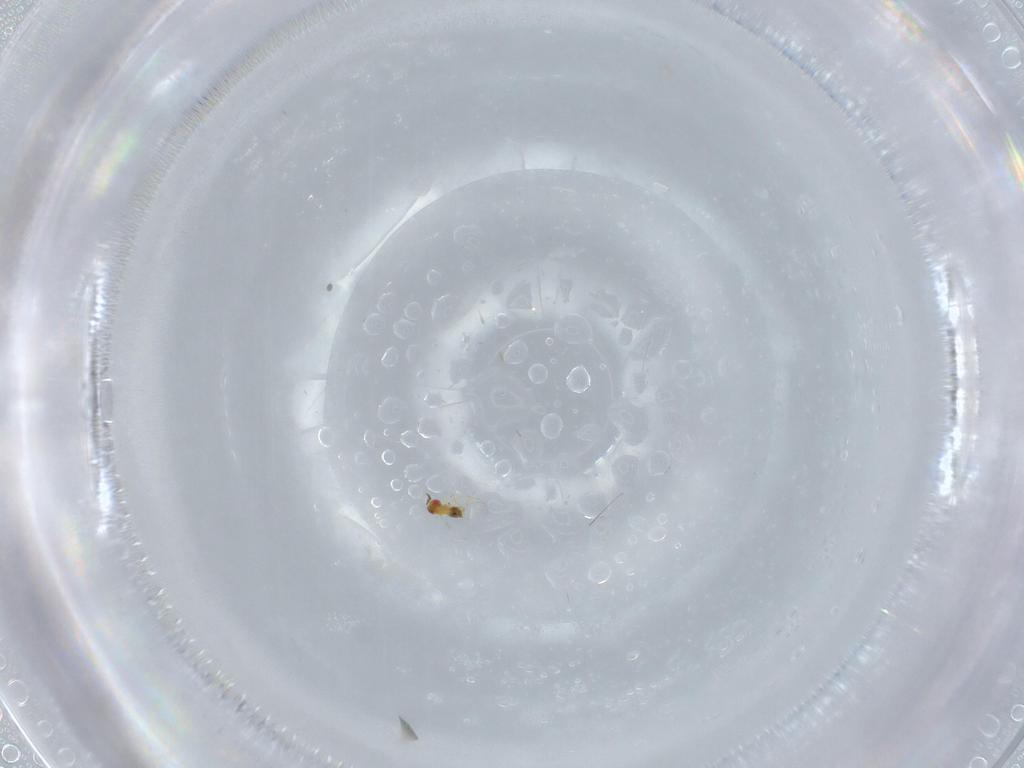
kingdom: Animalia
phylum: Arthropoda
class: Insecta
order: Hymenoptera
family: Trichogrammatidae
